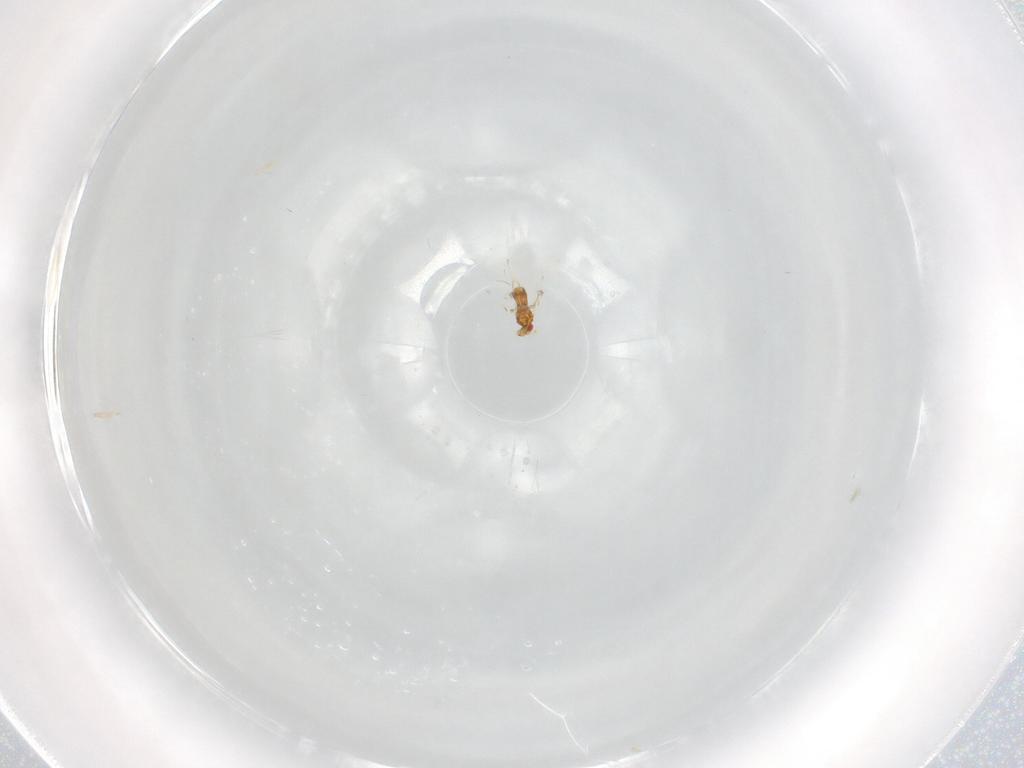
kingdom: Animalia
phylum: Arthropoda
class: Insecta
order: Hymenoptera
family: Trichogrammatidae
